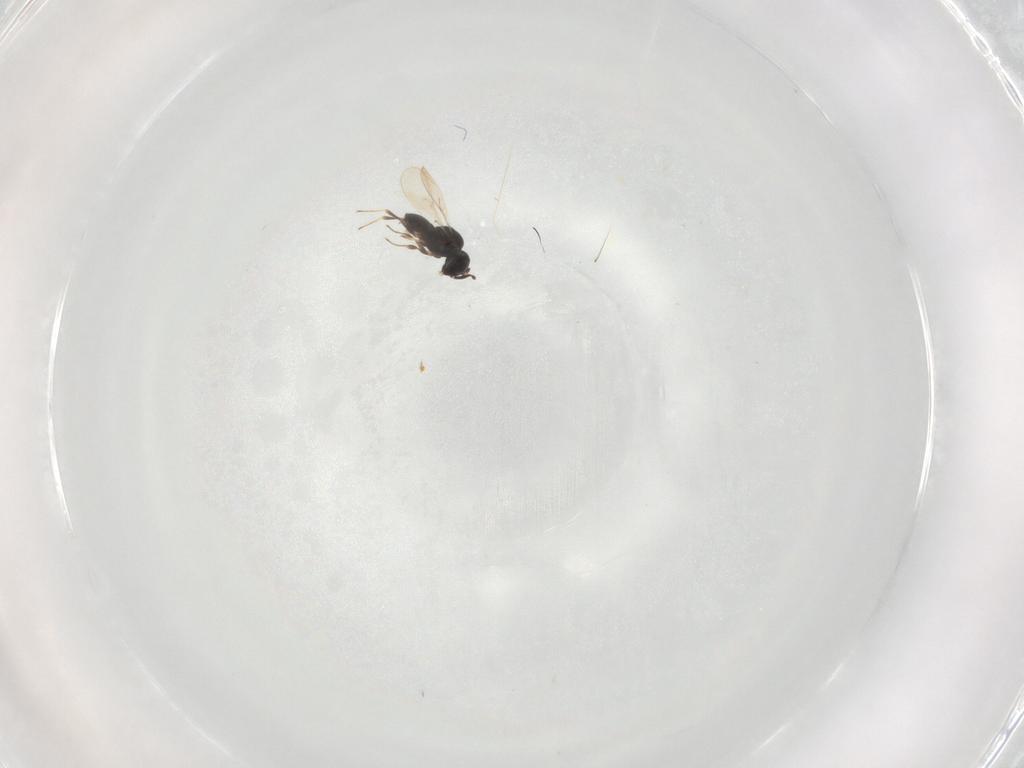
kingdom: Animalia
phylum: Arthropoda
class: Insecta
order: Hymenoptera
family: Scelionidae
